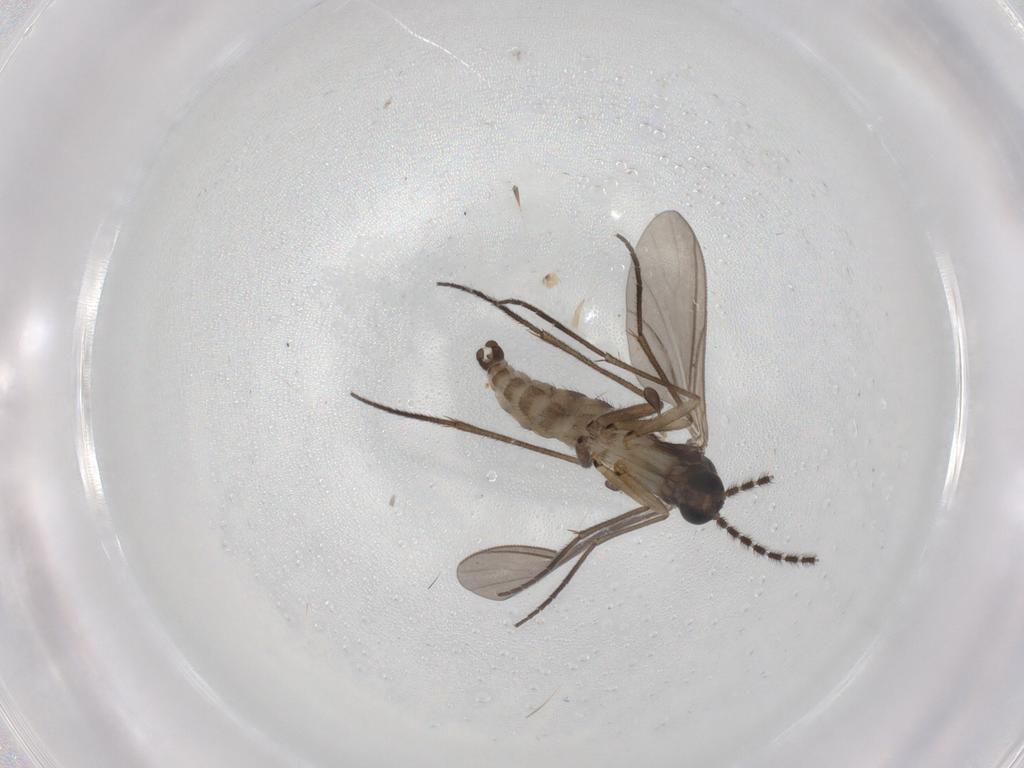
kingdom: Animalia
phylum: Arthropoda
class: Insecta
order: Diptera
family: Sciaridae
